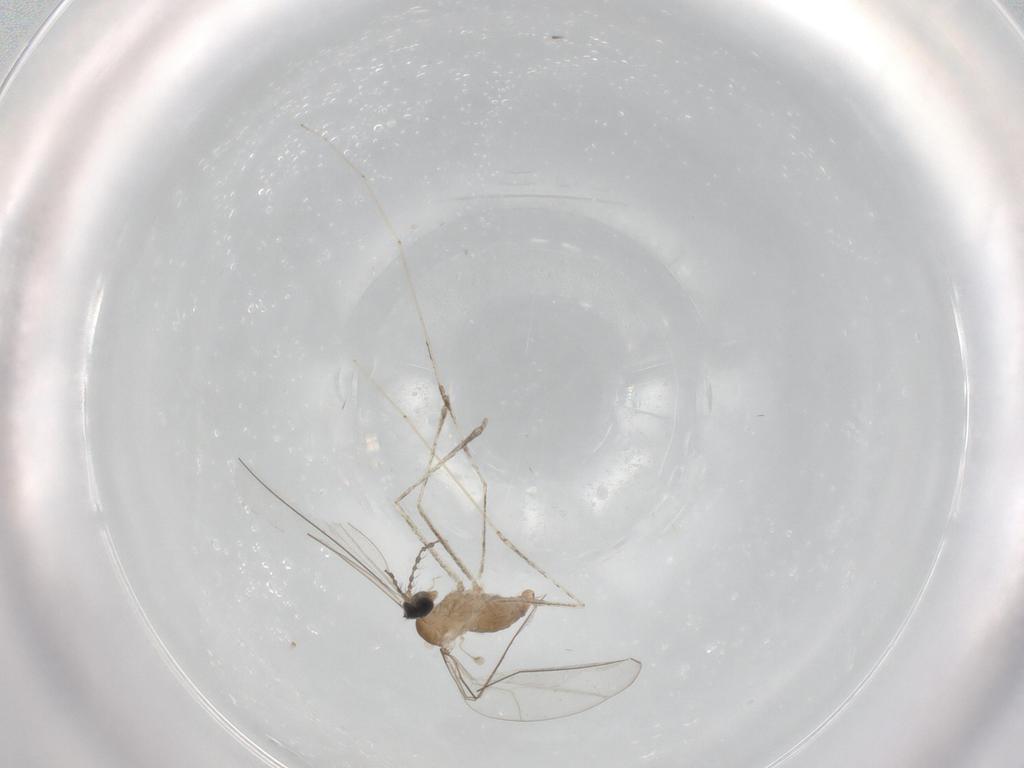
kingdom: Animalia
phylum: Arthropoda
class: Insecta
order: Diptera
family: Cecidomyiidae
